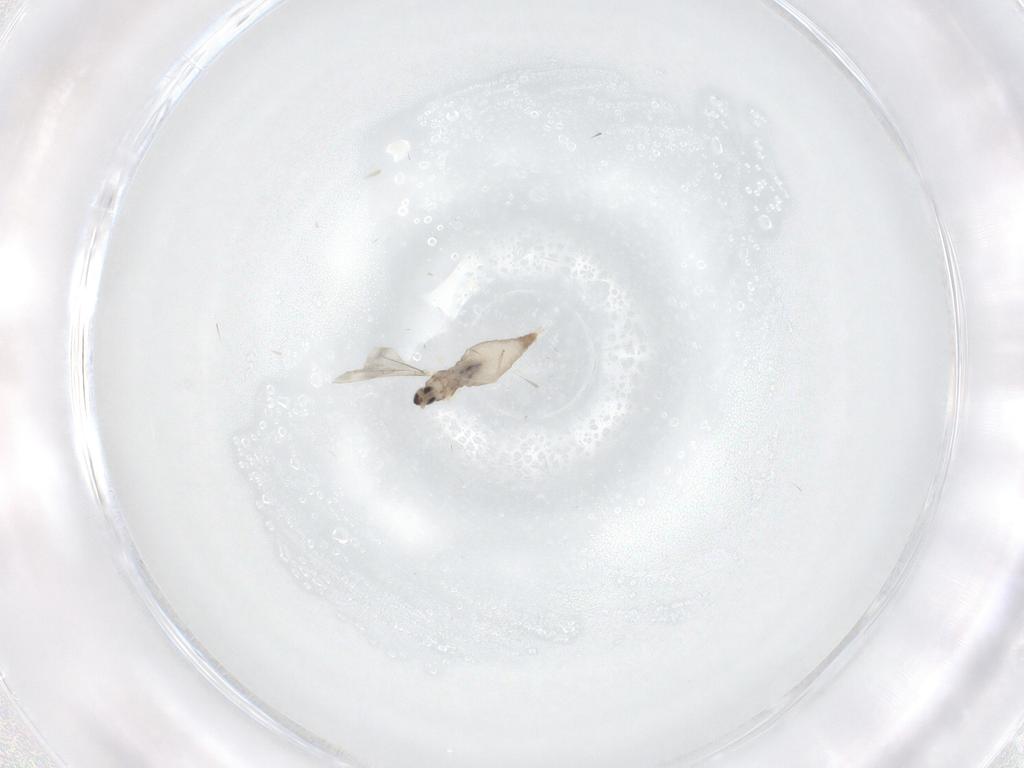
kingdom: Animalia
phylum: Arthropoda
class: Insecta
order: Diptera
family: Cecidomyiidae
